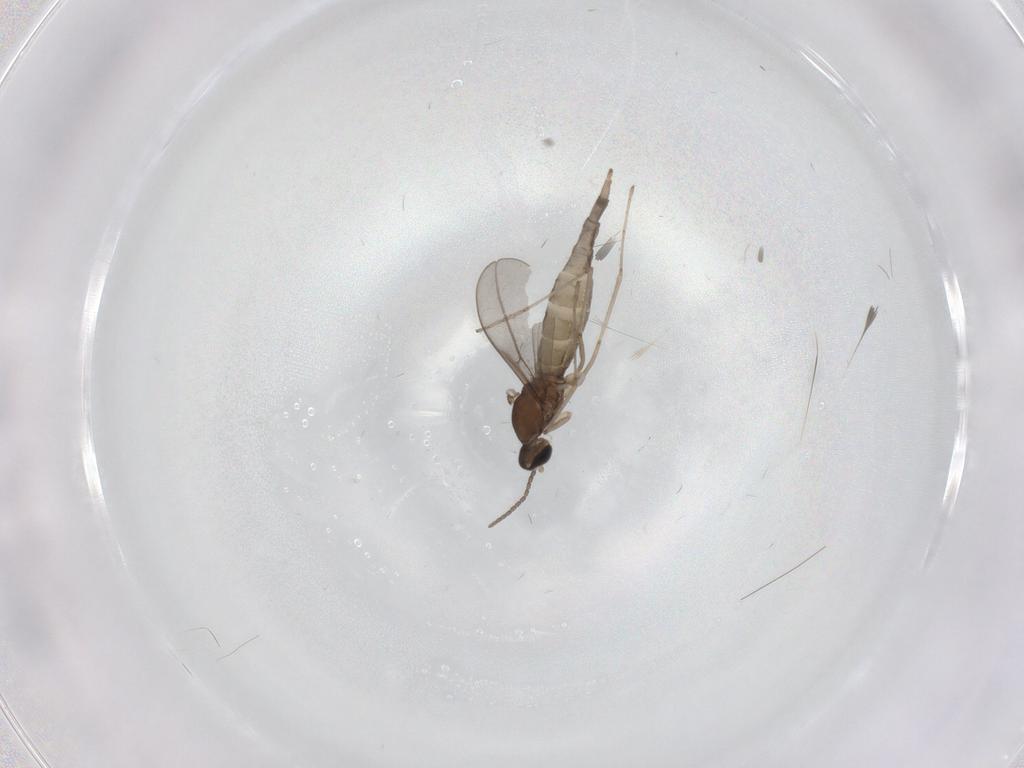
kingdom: Animalia
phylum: Arthropoda
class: Insecta
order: Diptera
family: Cecidomyiidae
